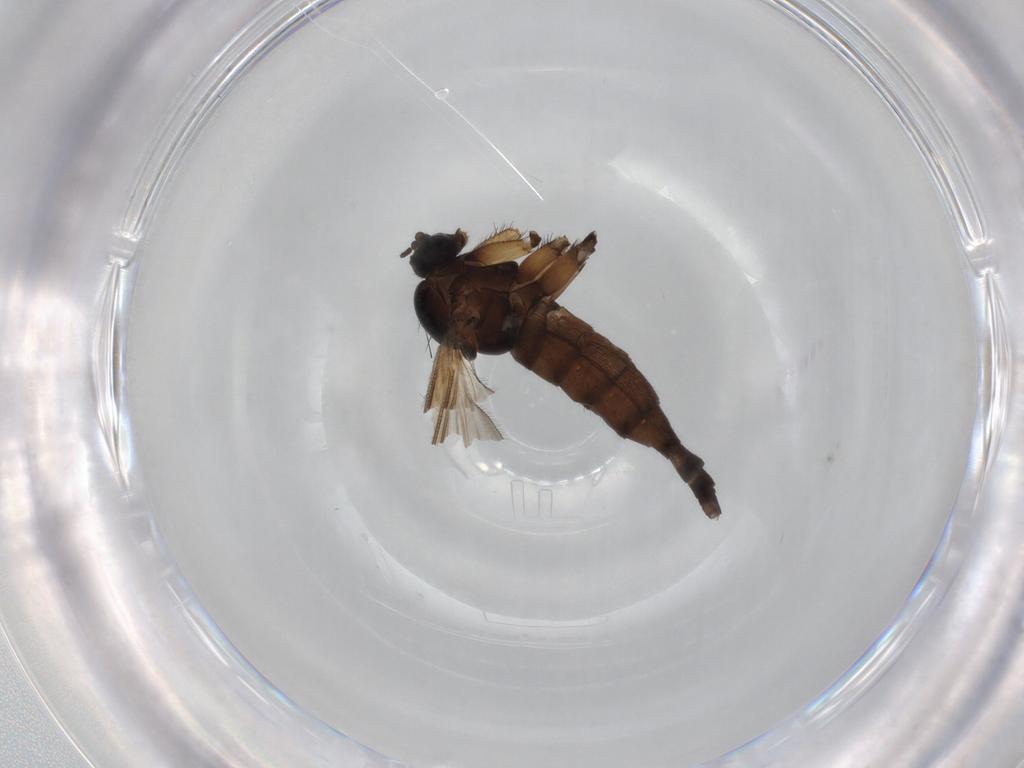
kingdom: Animalia
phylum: Arthropoda
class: Insecta
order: Diptera
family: Sciaridae
